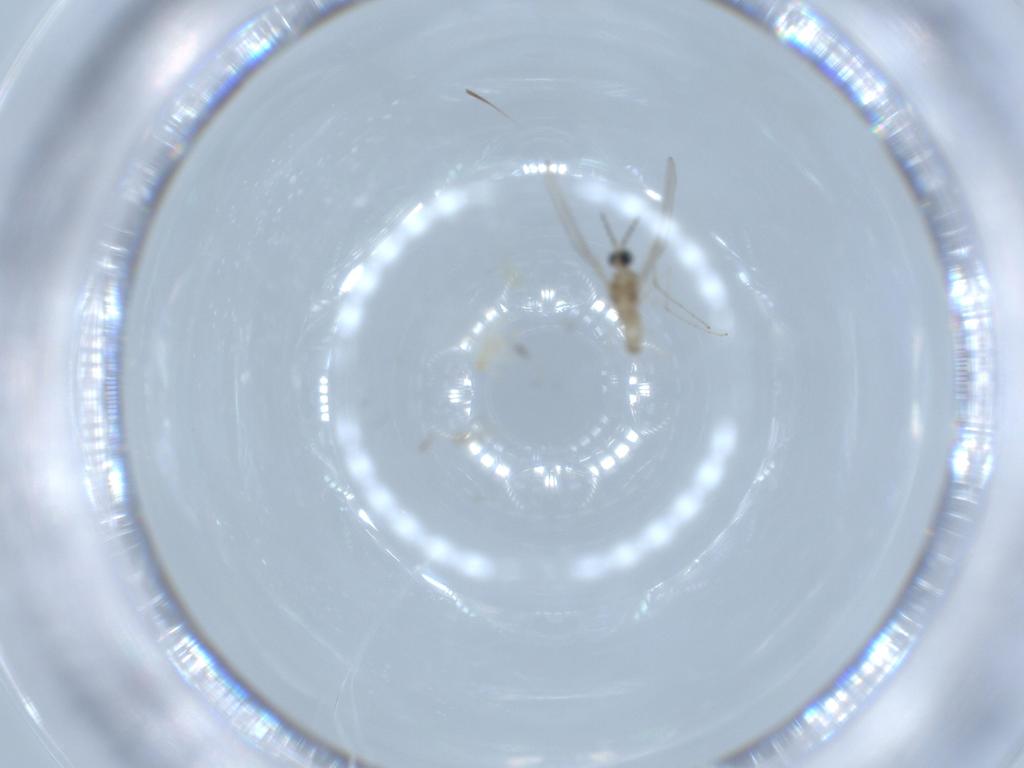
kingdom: Animalia
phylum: Arthropoda
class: Insecta
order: Diptera
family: Cecidomyiidae
